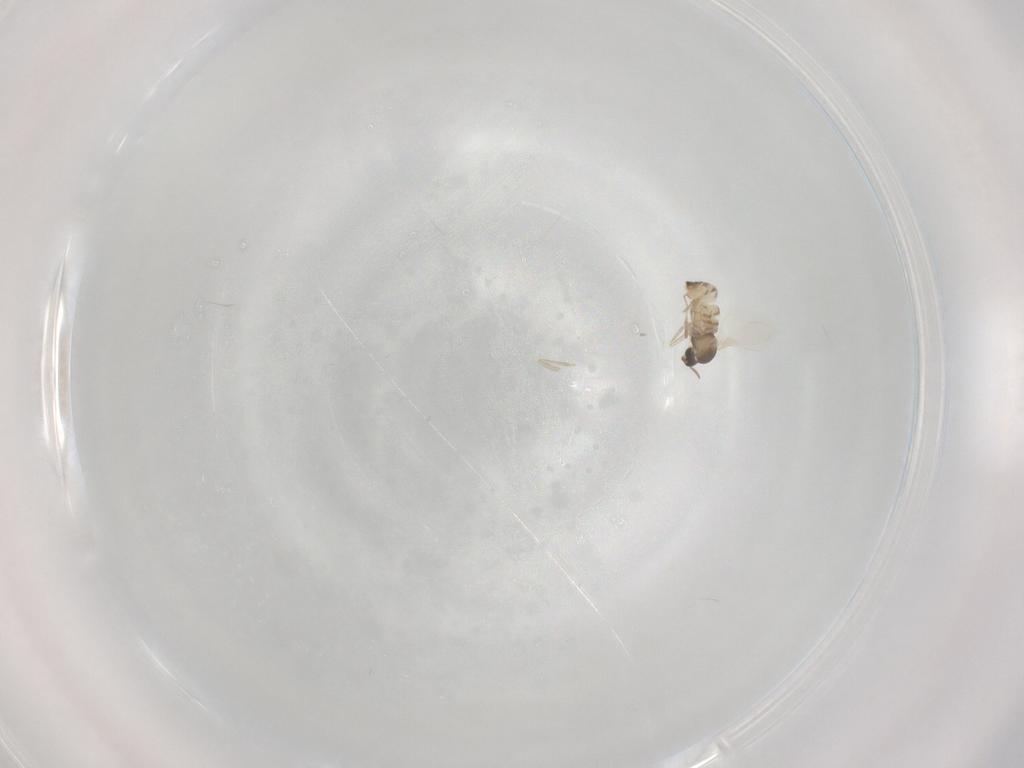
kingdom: Animalia
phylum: Arthropoda
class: Insecta
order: Diptera
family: Cecidomyiidae
